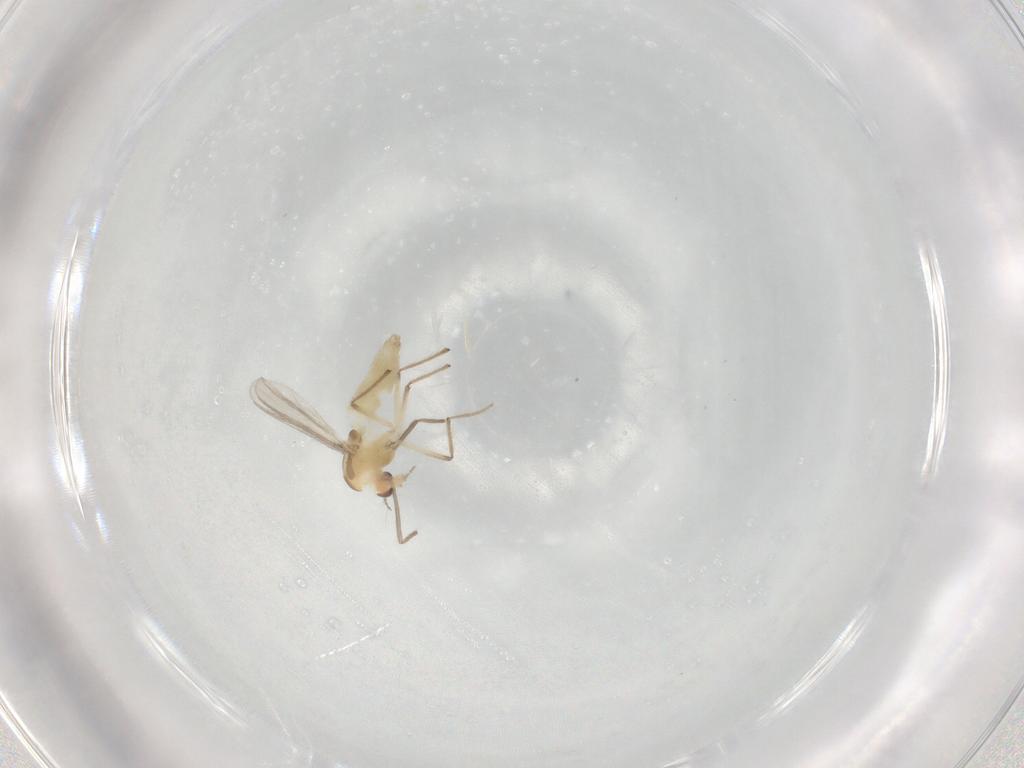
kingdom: Animalia
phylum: Arthropoda
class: Insecta
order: Diptera
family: Chironomidae
